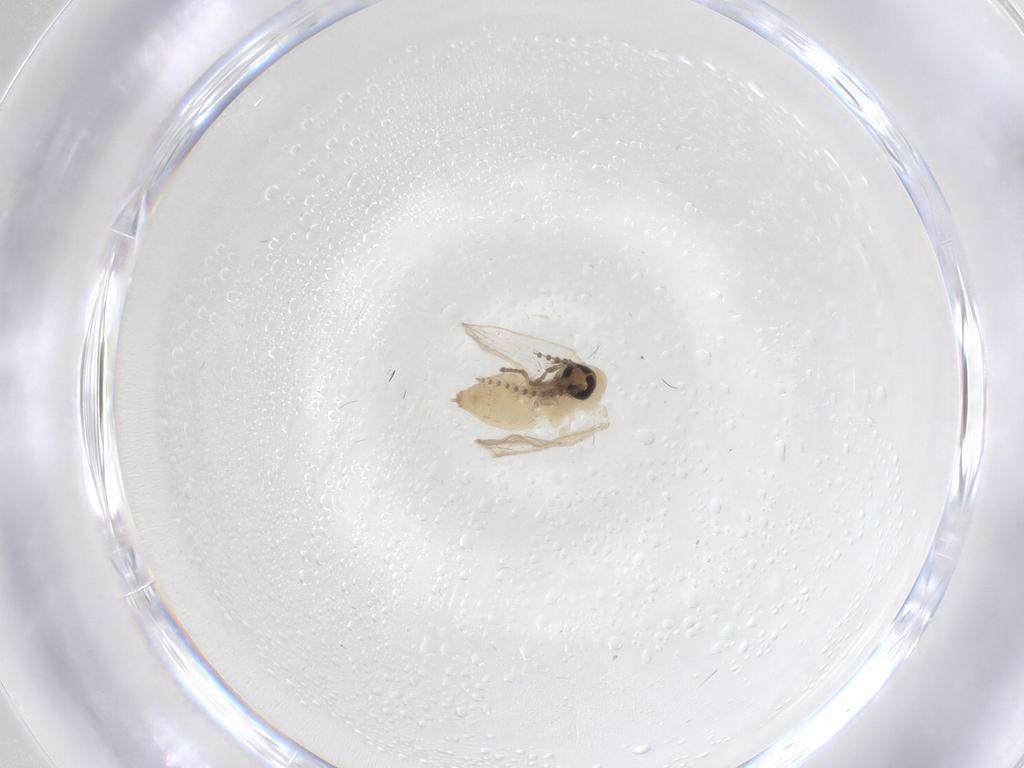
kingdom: Animalia
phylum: Arthropoda
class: Insecta
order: Diptera
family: Psychodidae
